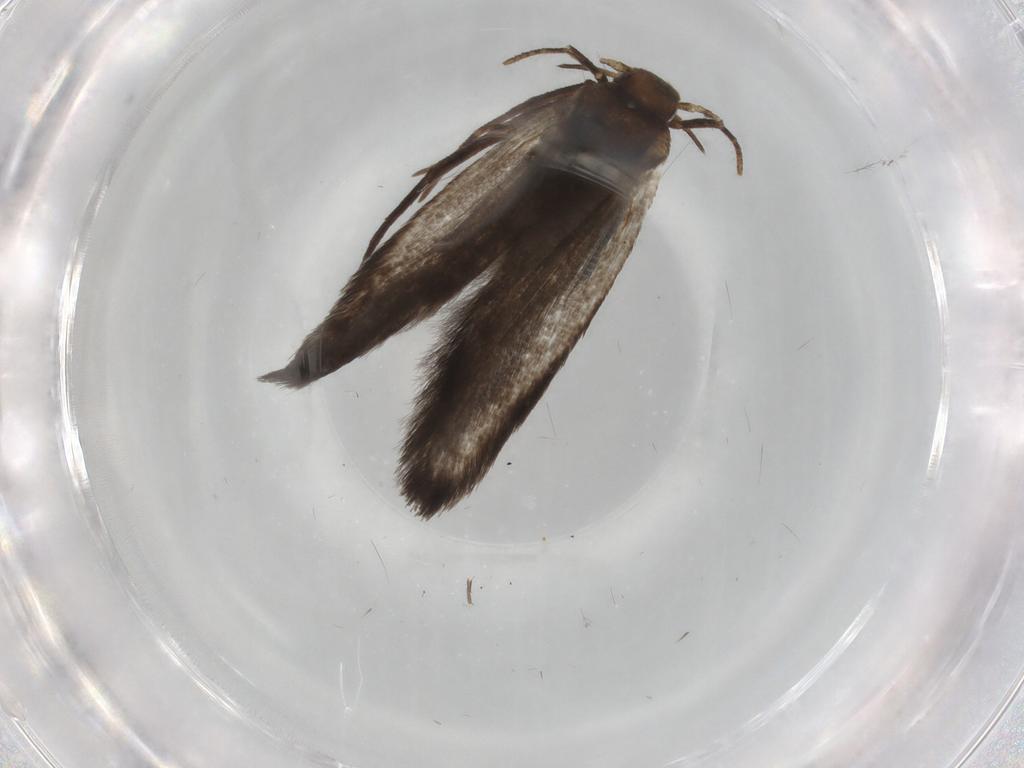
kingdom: Animalia
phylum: Arthropoda
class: Insecta
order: Lepidoptera
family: Cosmopterigidae
